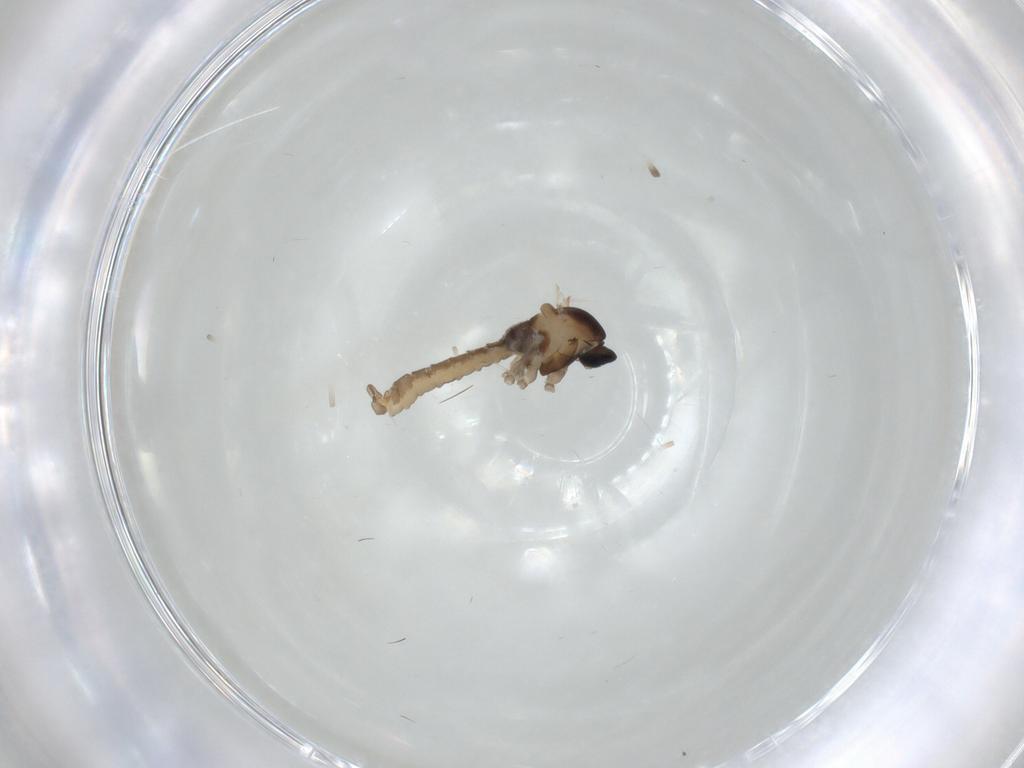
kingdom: Animalia
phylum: Arthropoda
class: Insecta
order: Diptera
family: Cecidomyiidae
